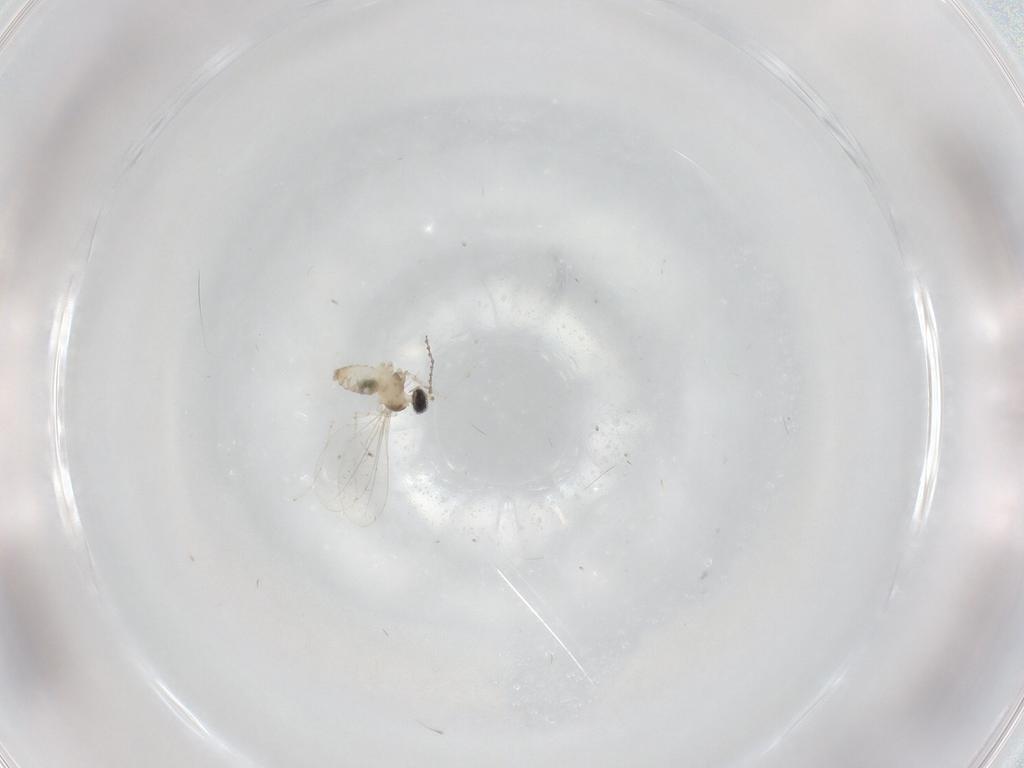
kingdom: Animalia
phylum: Arthropoda
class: Insecta
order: Diptera
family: Cecidomyiidae
